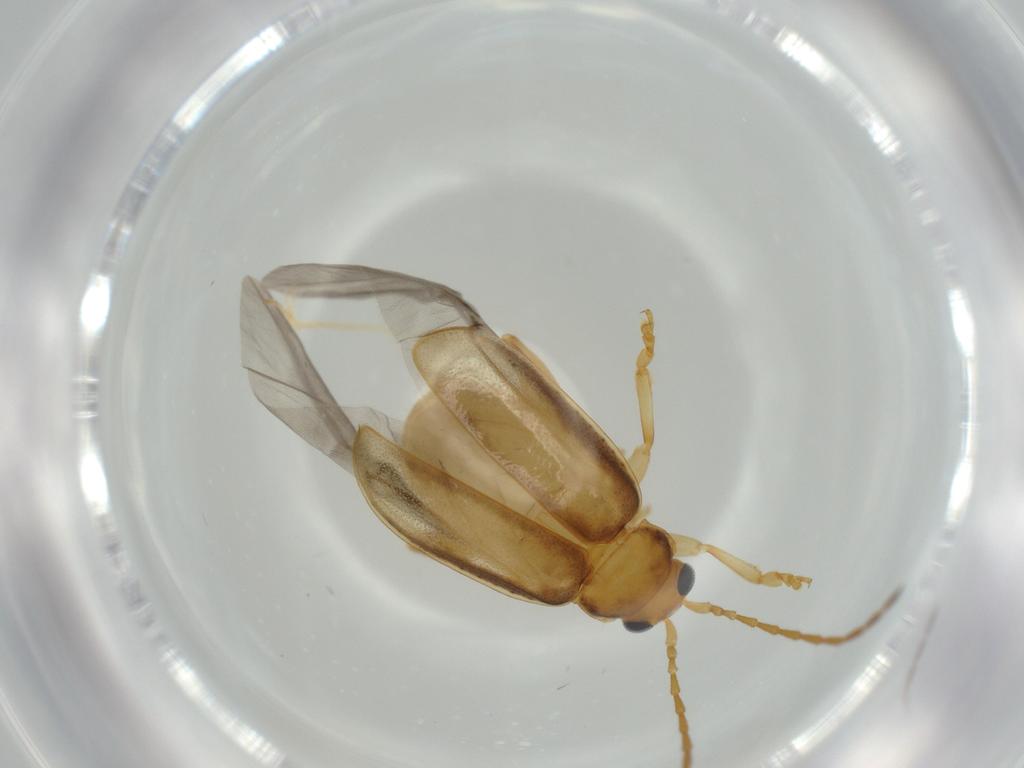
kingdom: Animalia
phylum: Arthropoda
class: Insecta
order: Coleoptera
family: Chrysomelidae
